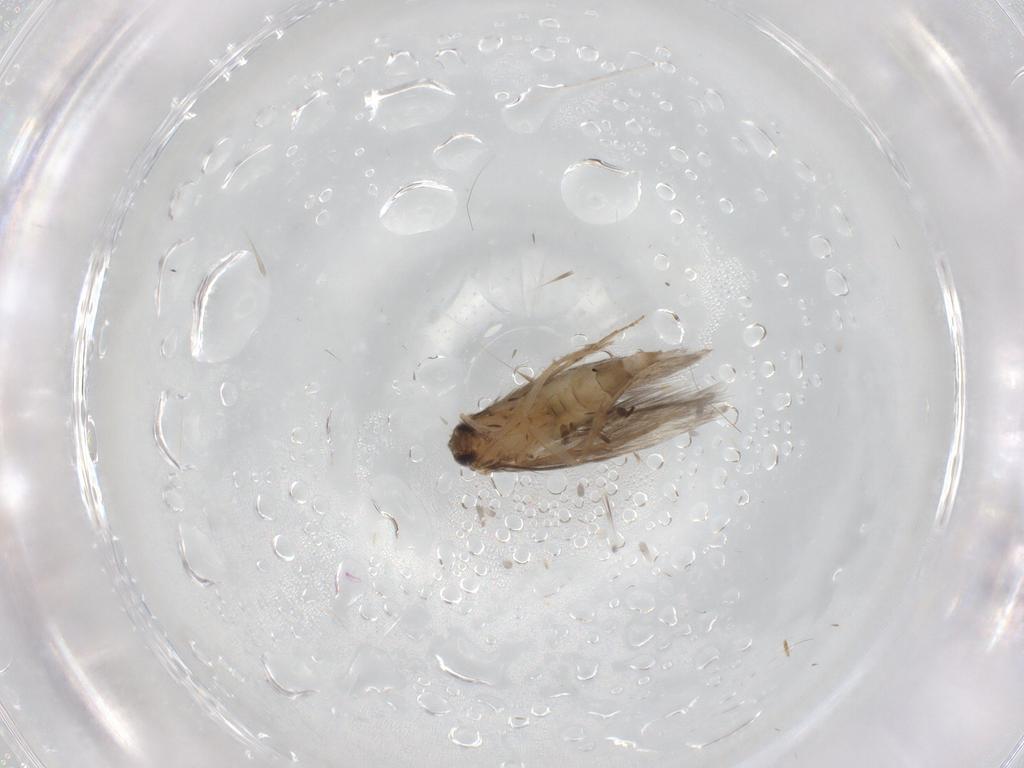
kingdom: Animalia
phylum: Arthropoda
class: Insecta
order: Trichoptera
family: Hydroptilidae
